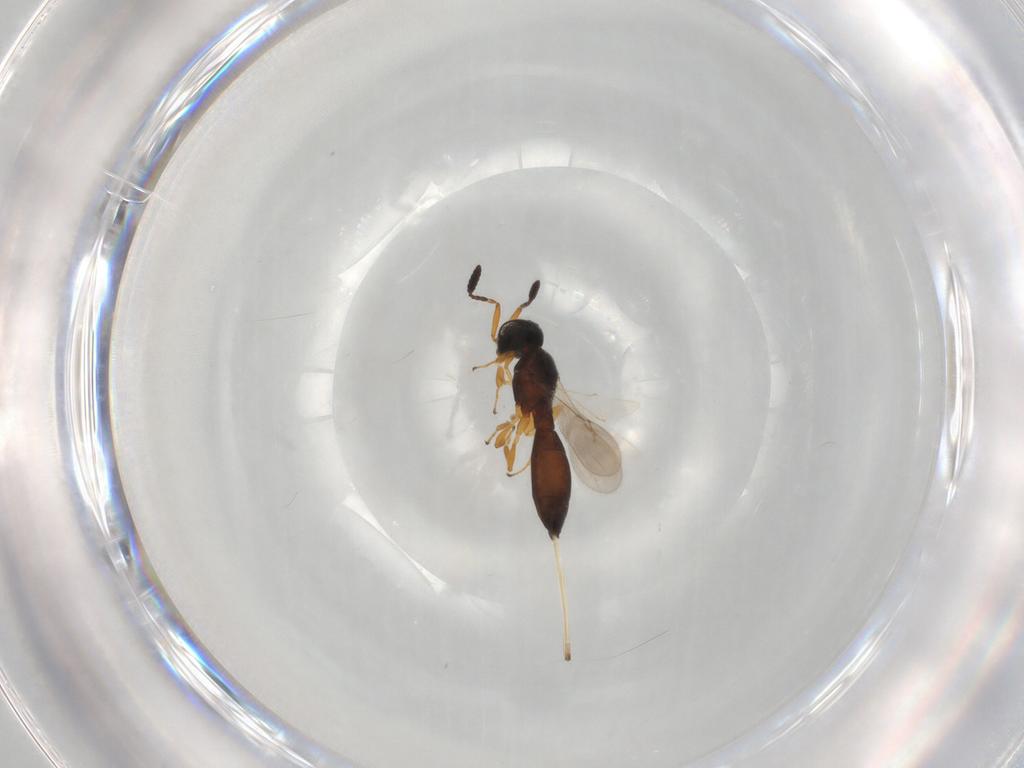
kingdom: Animalia
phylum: Arthropoda
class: Insecta
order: Hymenoptera
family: Scelionidae
